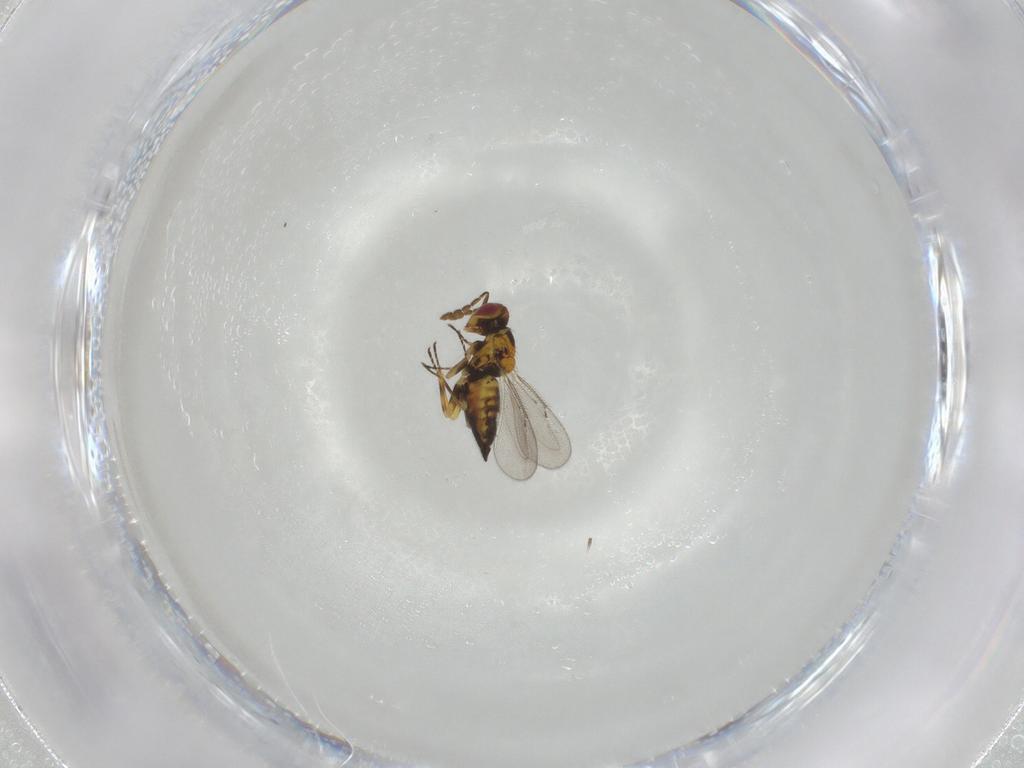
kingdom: Animalia
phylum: Arthropoda
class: Insecta
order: Hymenoptera
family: Eulophidae
